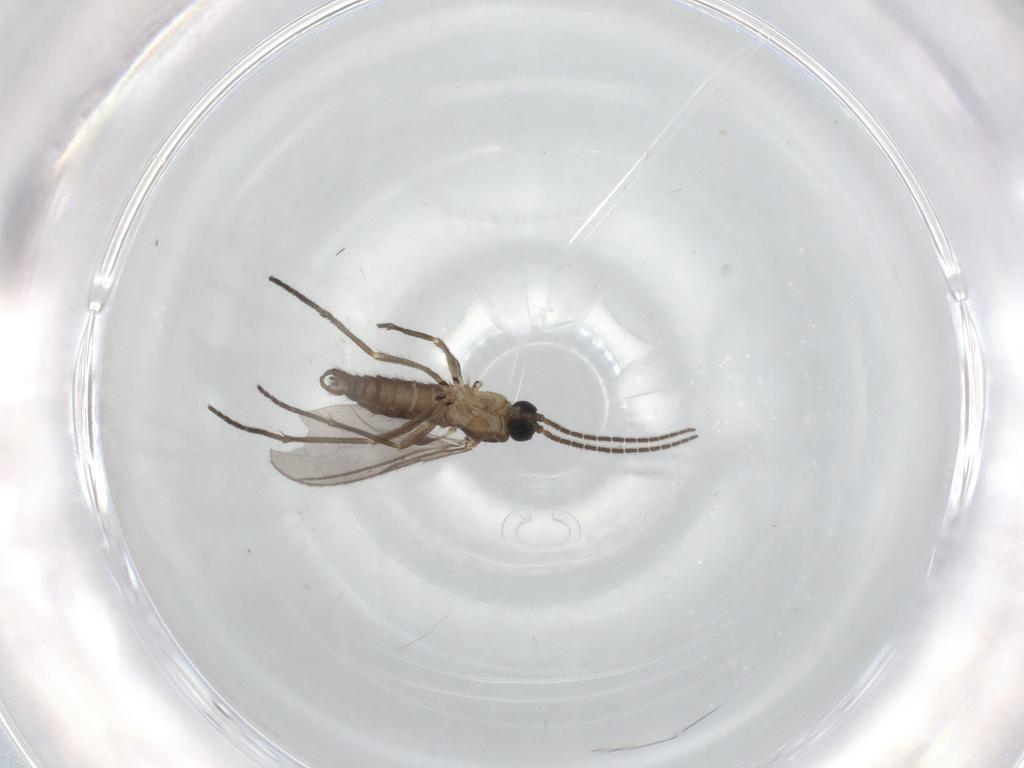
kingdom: Animalia
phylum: Arthropoda
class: Insecta
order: Diptera
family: Sciaridae
